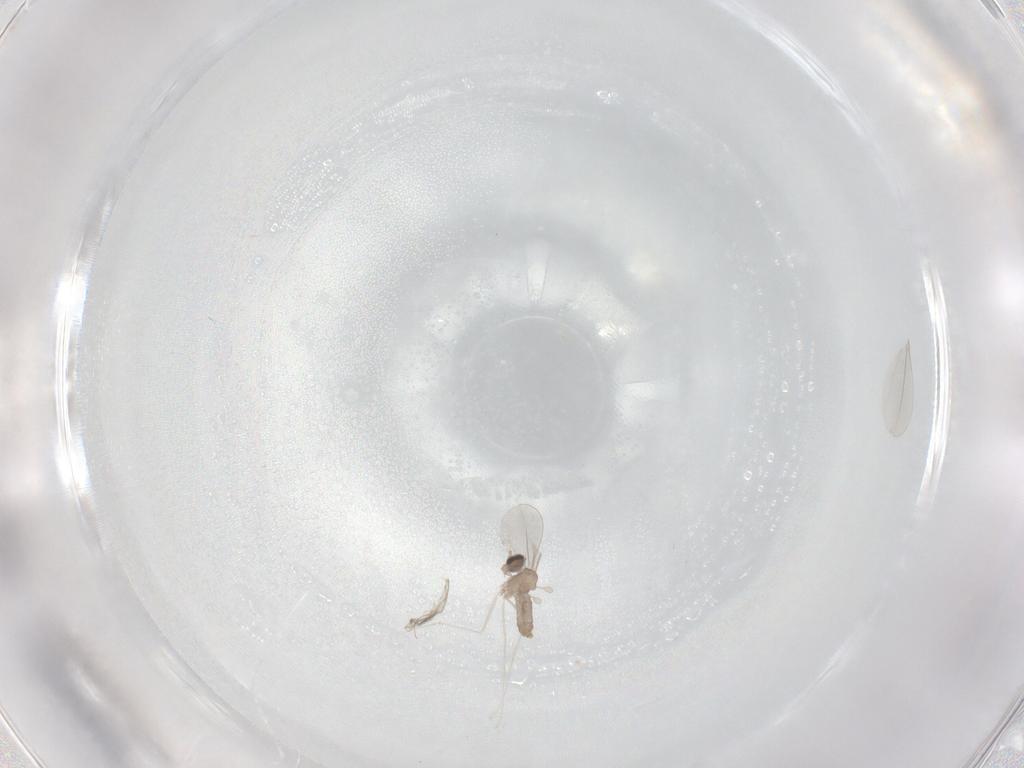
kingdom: Animalia
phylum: Arthropoda
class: Insecta
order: Diptera
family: Cecidomyiidae
